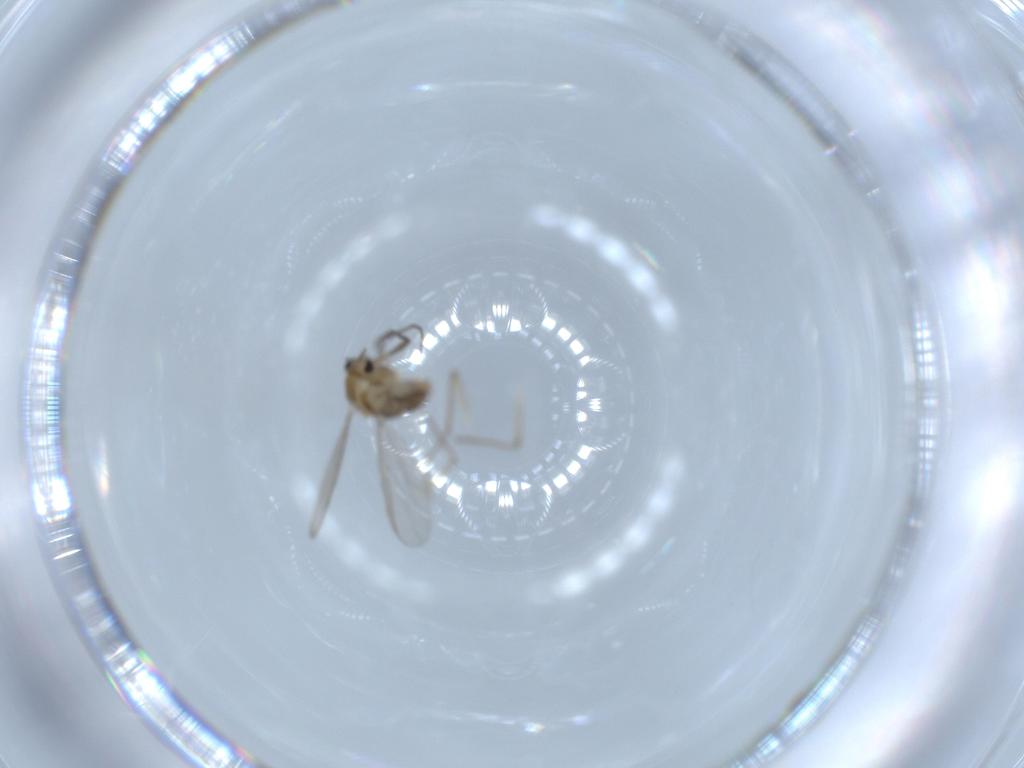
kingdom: Animalia
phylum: Arthropoda
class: Insecta
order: Diptera
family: Chironomidae
